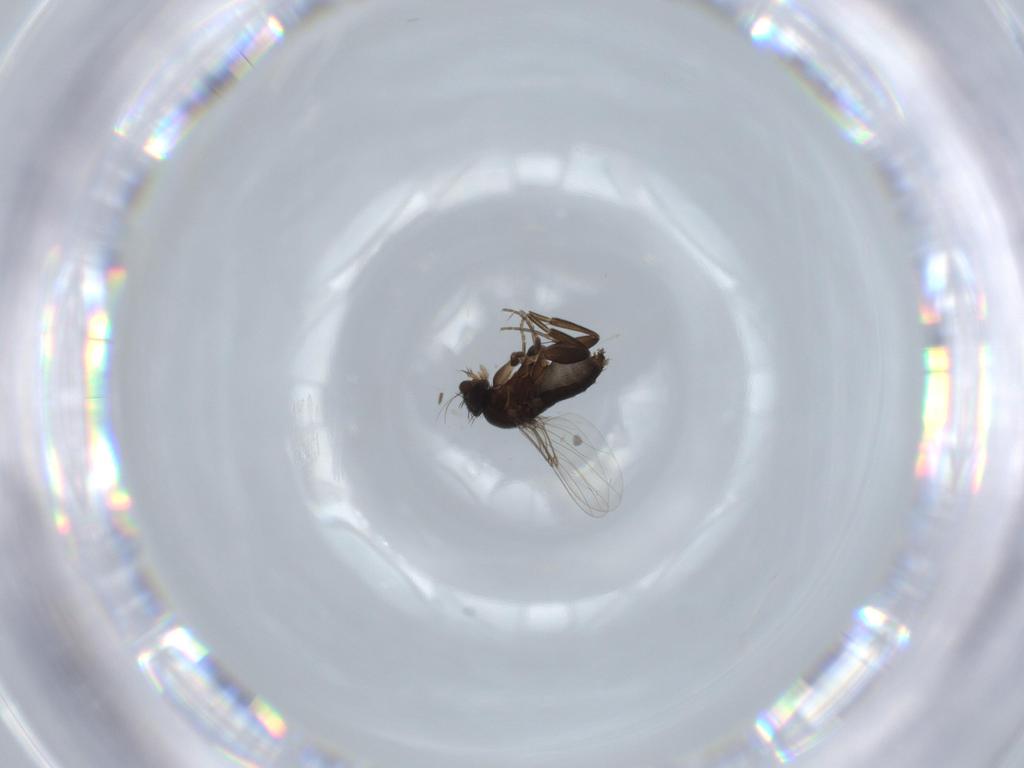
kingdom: Animalia
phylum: Arthropoda
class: Insecta
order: Diptera
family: Phoridae
